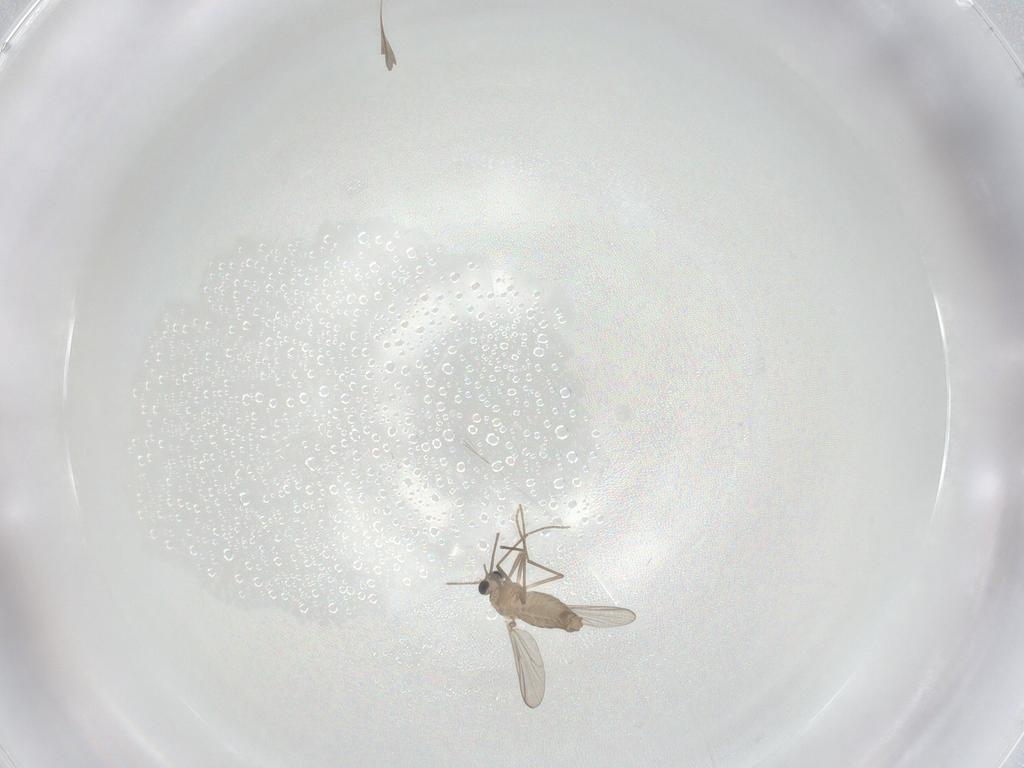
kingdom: Animalia
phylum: Arthropoda
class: Insecta
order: Diptera
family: Chironomidae
